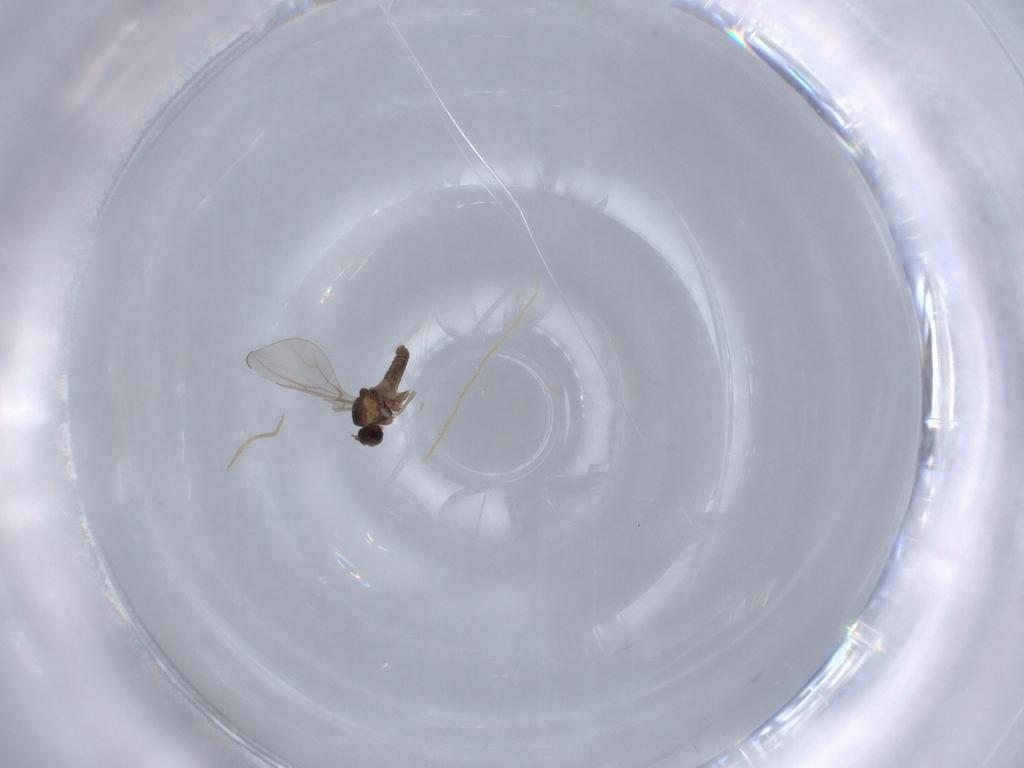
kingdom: Animalia
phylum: Arthropoda
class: Insecta
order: Diptera
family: Cecidomyiidae
